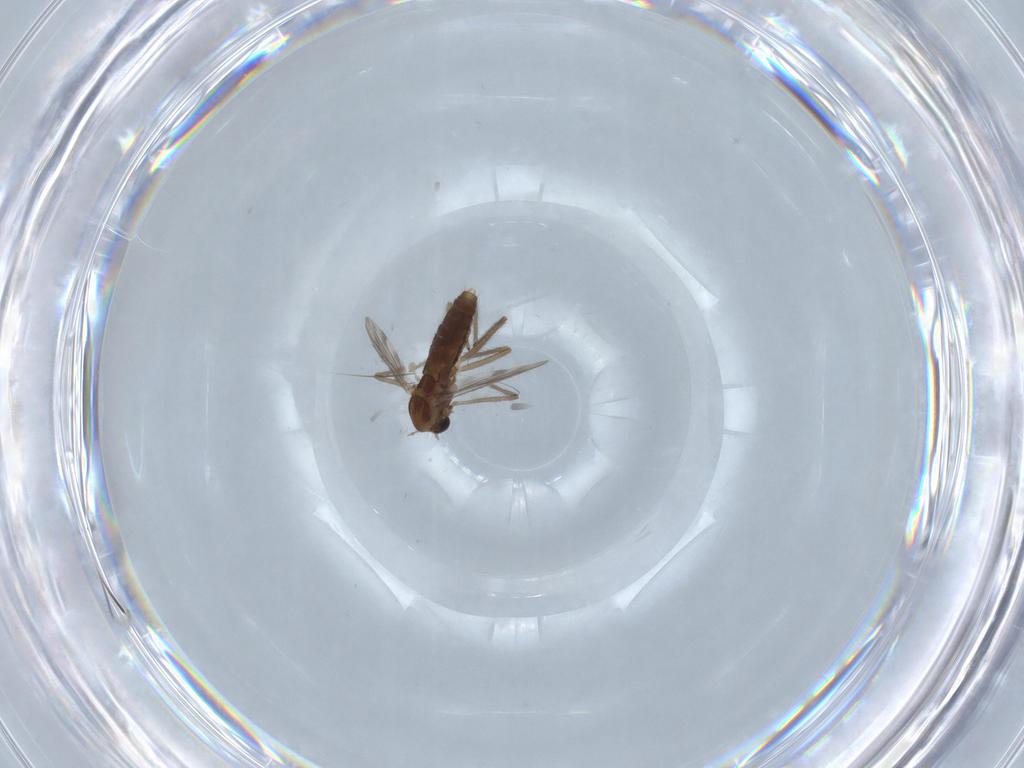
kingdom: Animalia
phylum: Arthropoda
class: Insecta
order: Diptera
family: Chironomidae
